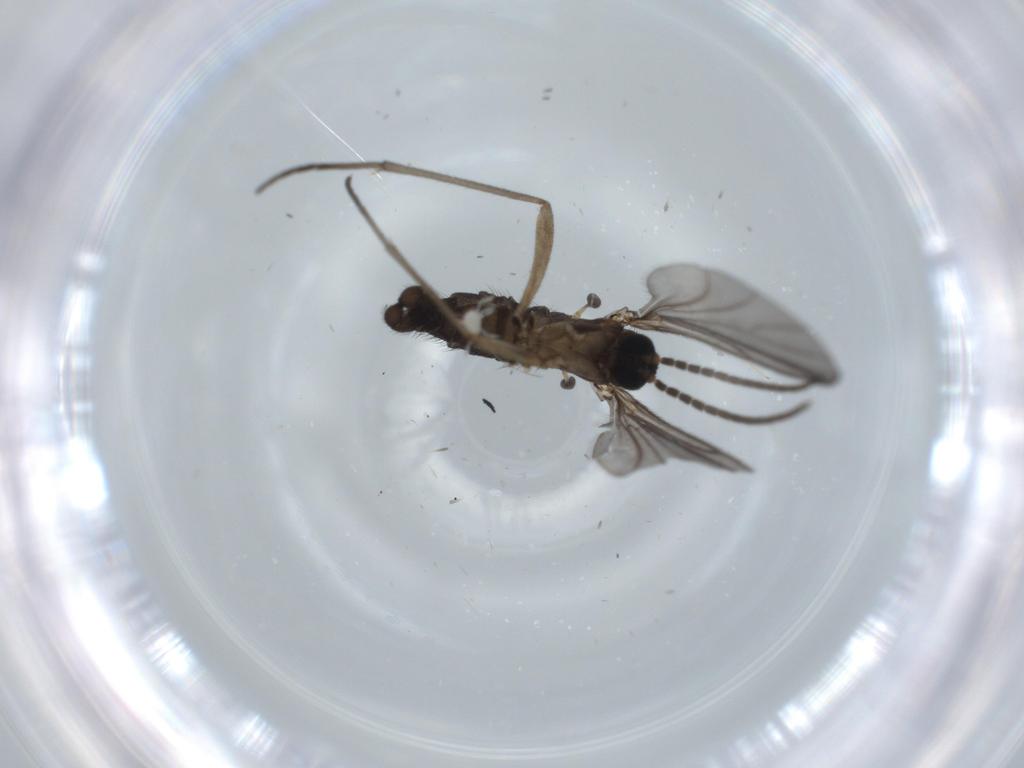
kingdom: Animalia
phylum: Arthropoda
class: Insecta
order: Diptera
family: Sciaridae
